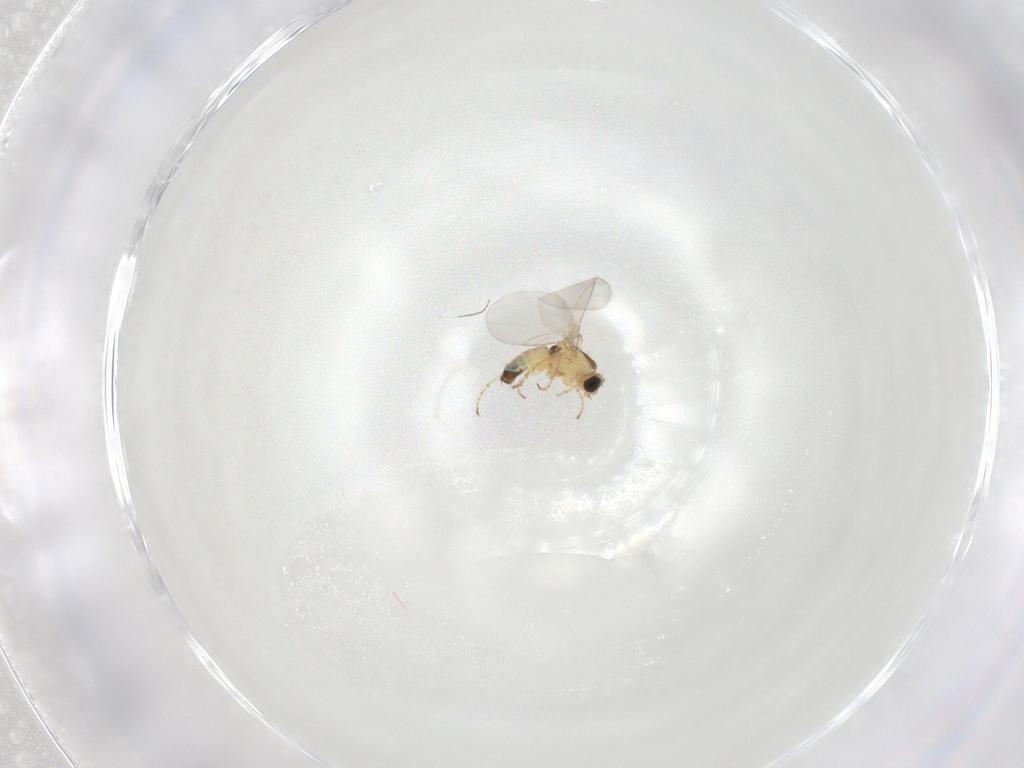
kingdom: Animalia
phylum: Arthropoda
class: Insecta
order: Diptera
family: Agromyzidae
